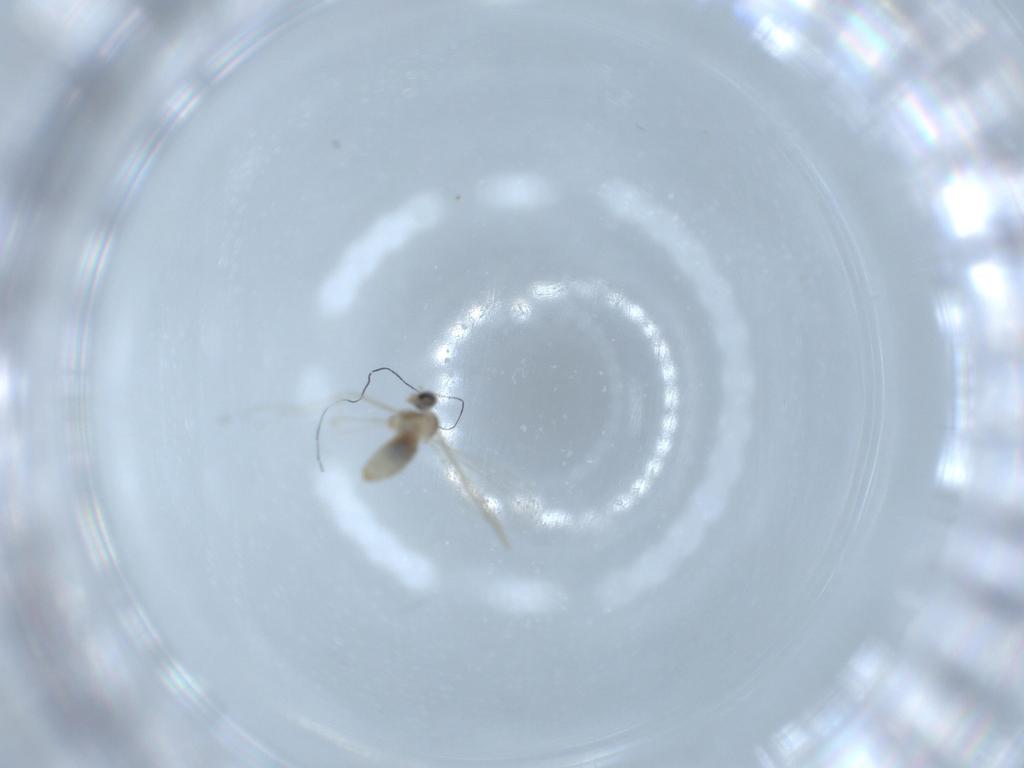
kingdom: Animalia
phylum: Arthropoda
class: Insecta
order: Diptera
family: Cecidomyiidae
